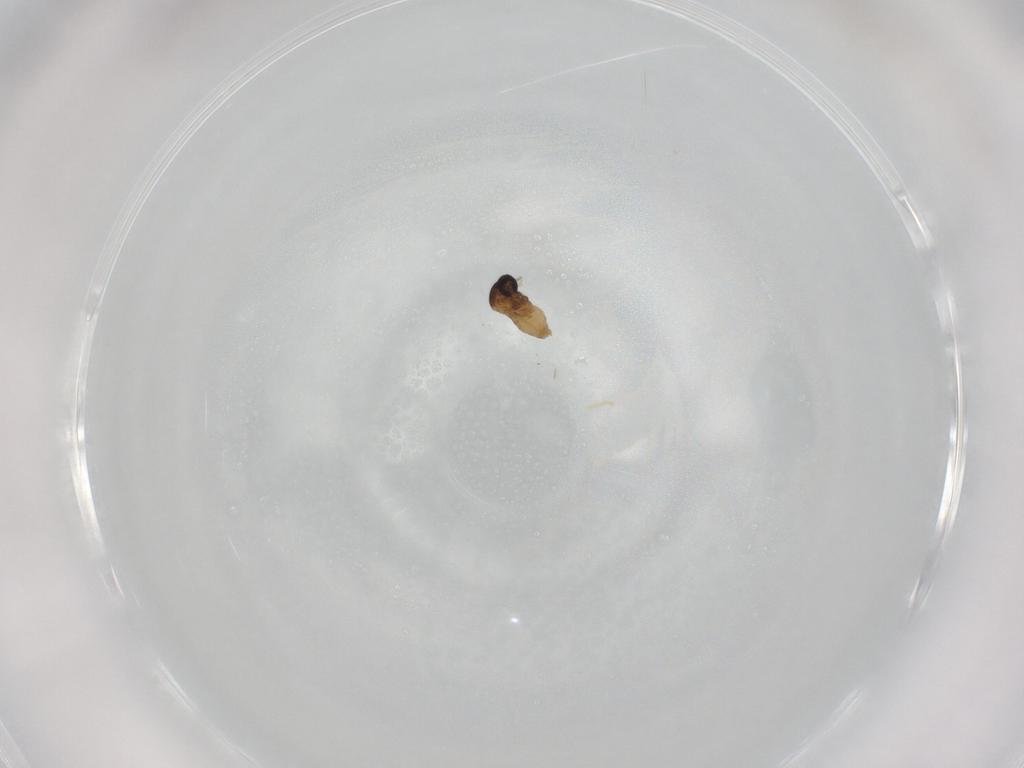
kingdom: Animalia
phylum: Arthropoda
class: Insecta
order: Diptera
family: Cecidomyiidae
